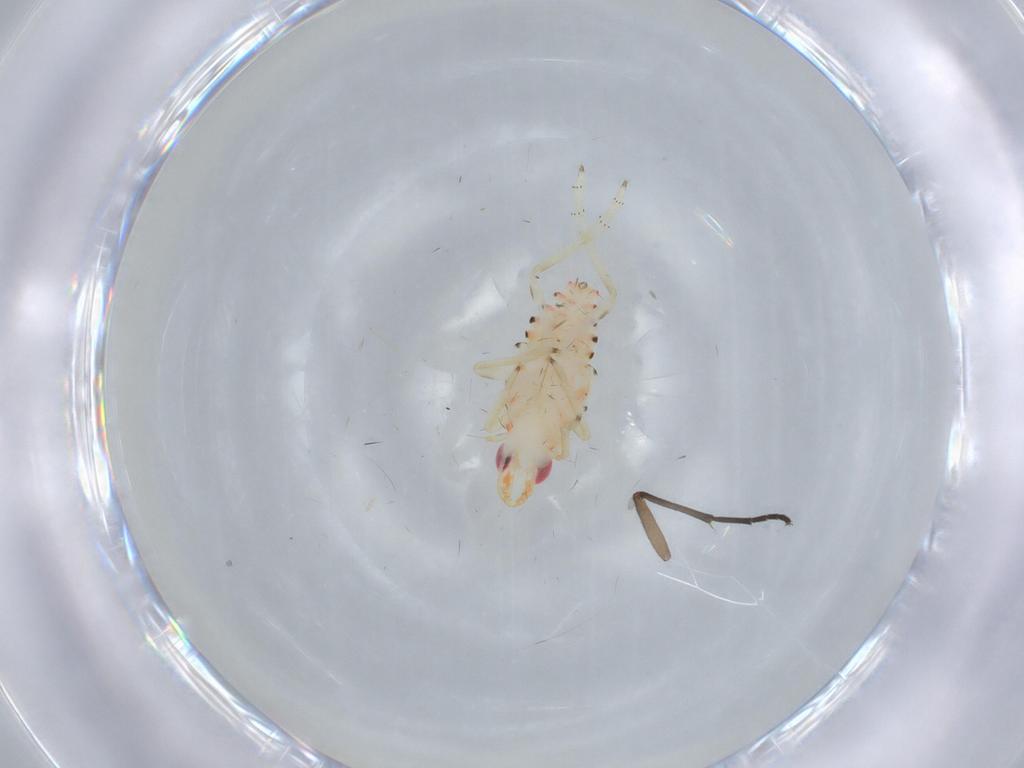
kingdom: Animalia
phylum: Arthropoda
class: Insecta
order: Hemiptera
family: Tropiduchidae
